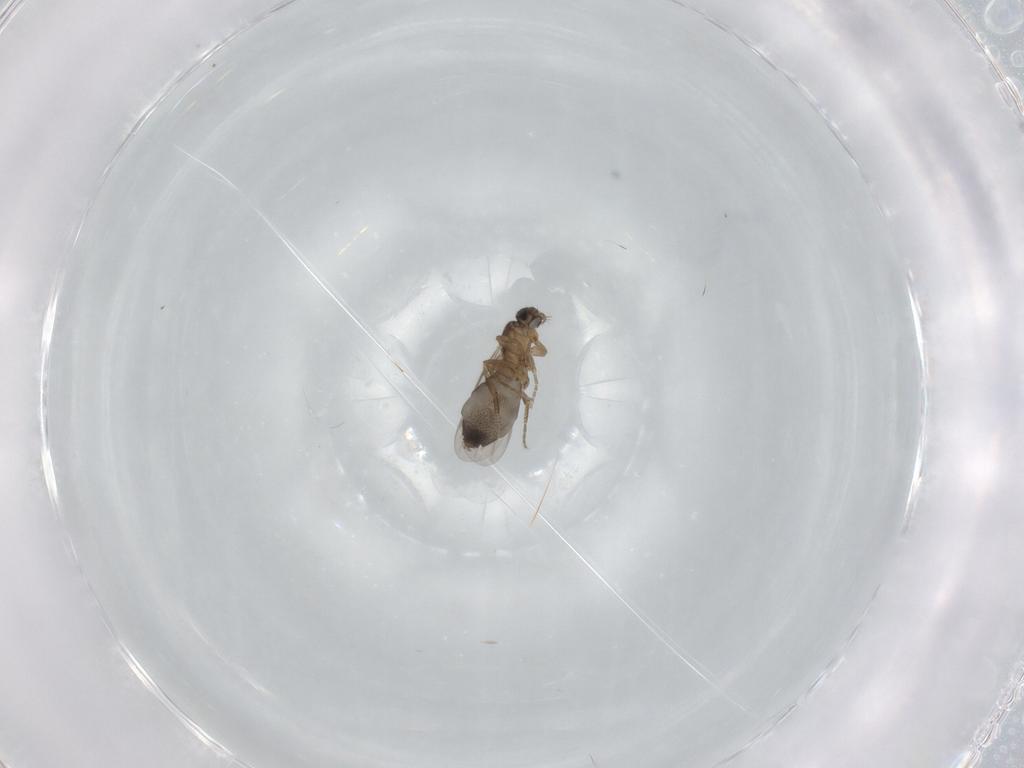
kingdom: Animalia
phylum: Arthropoda
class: Insecta
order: Diptera
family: Phoridae
